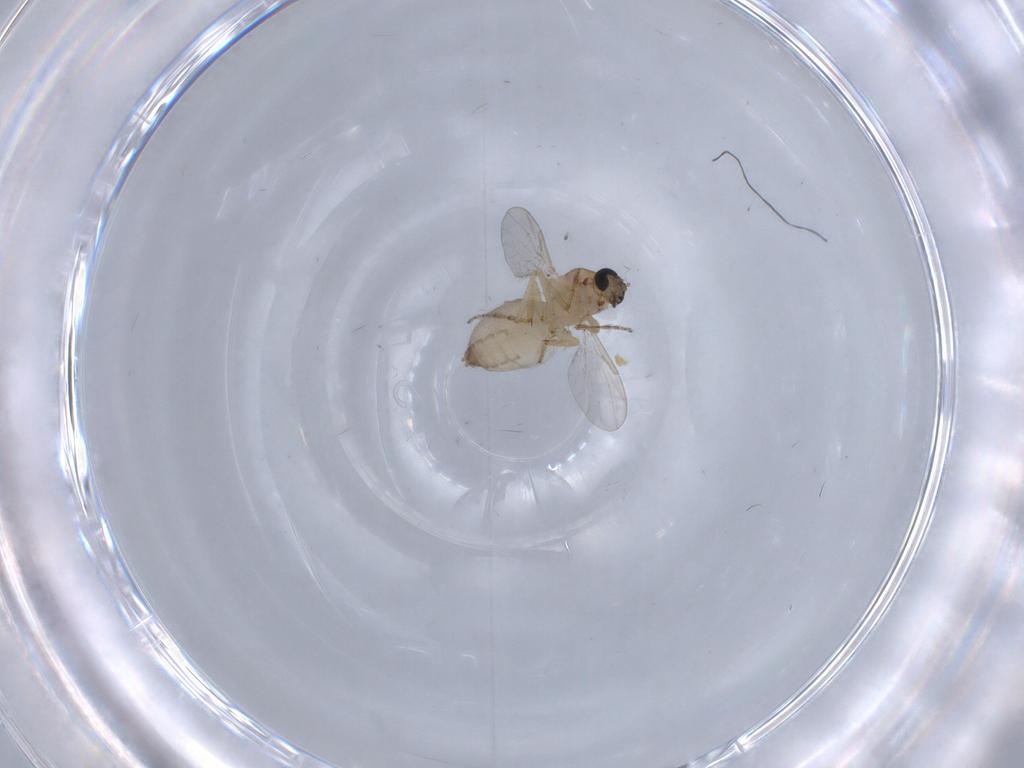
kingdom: Animalia
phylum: Arthropoda
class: Insecta
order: Diptera
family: Ceratopogonidae
